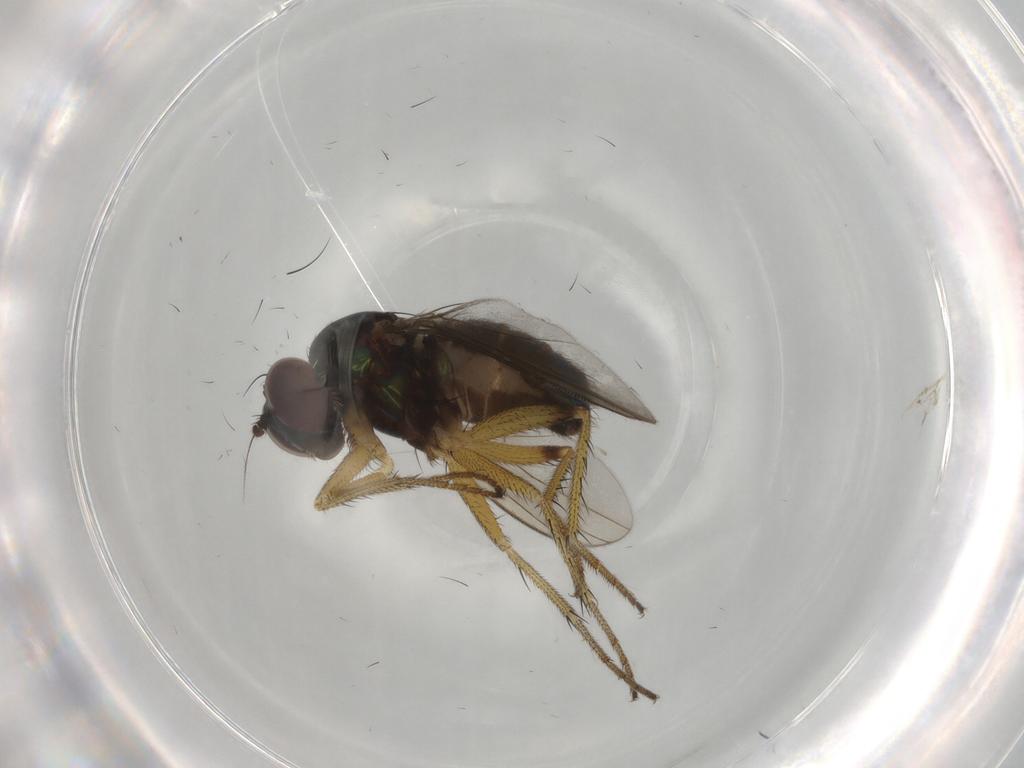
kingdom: Animalia
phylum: Arthropoda
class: Insecta
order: Diptera
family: Dolichopodidae
